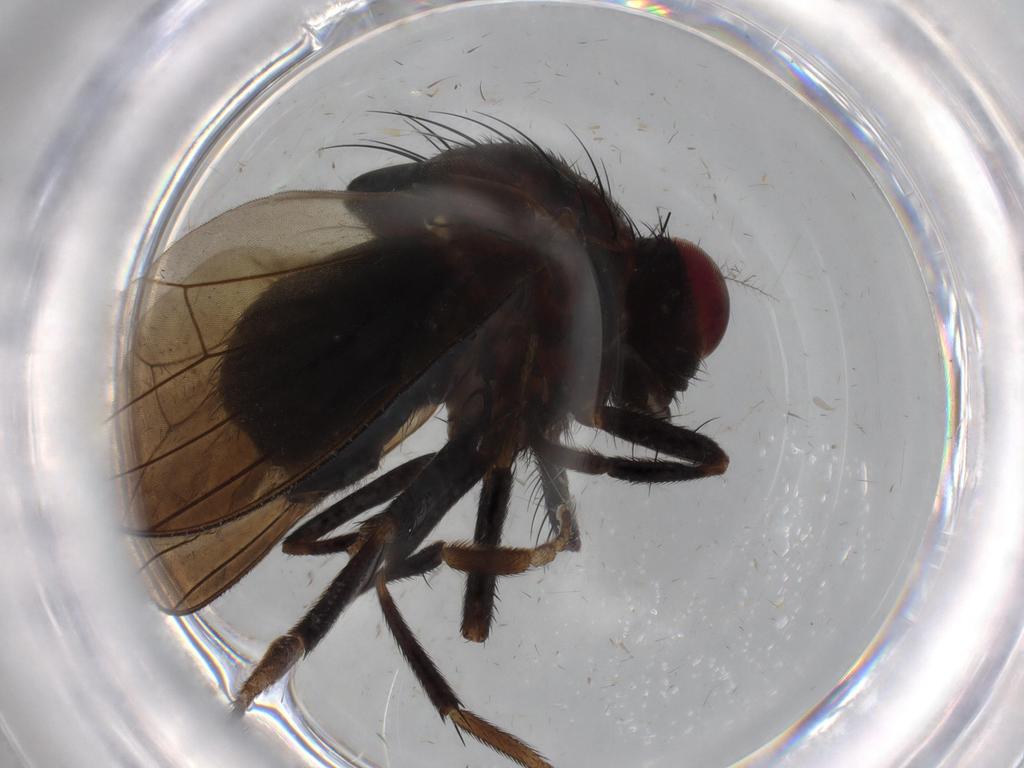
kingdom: Animalia
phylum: Arthropoda
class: Insecta
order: Diptera
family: Lauxaniidae
